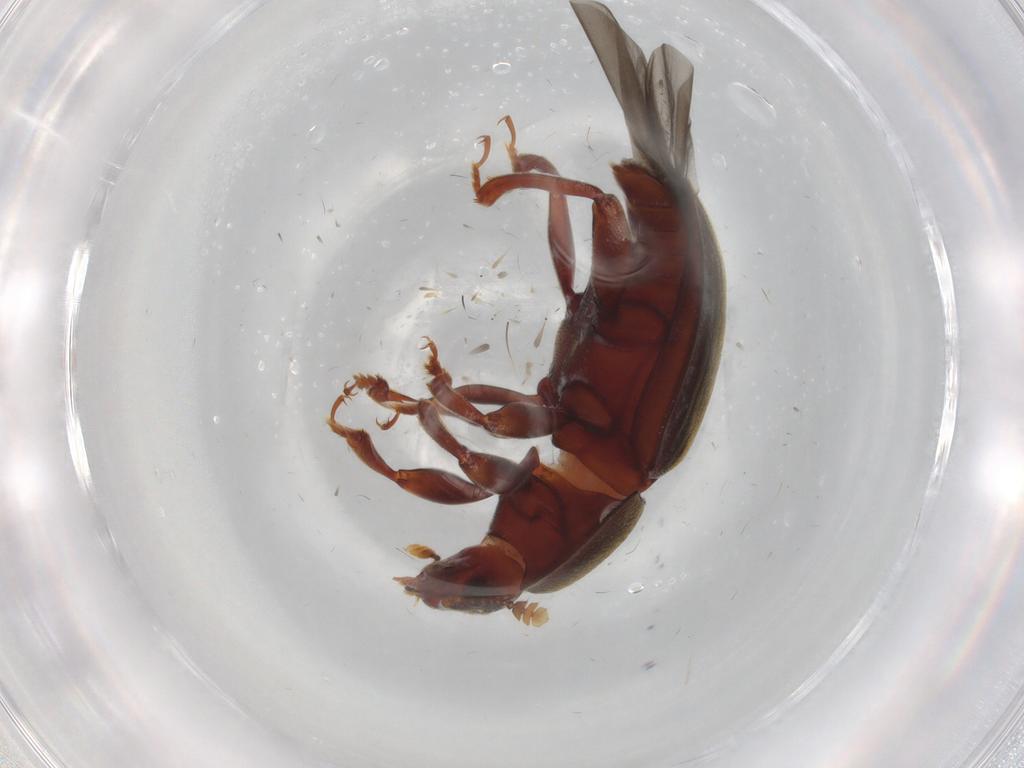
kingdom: Animalia
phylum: Arthropoda
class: Insecta
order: Coleoptera
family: Nitidulidae
